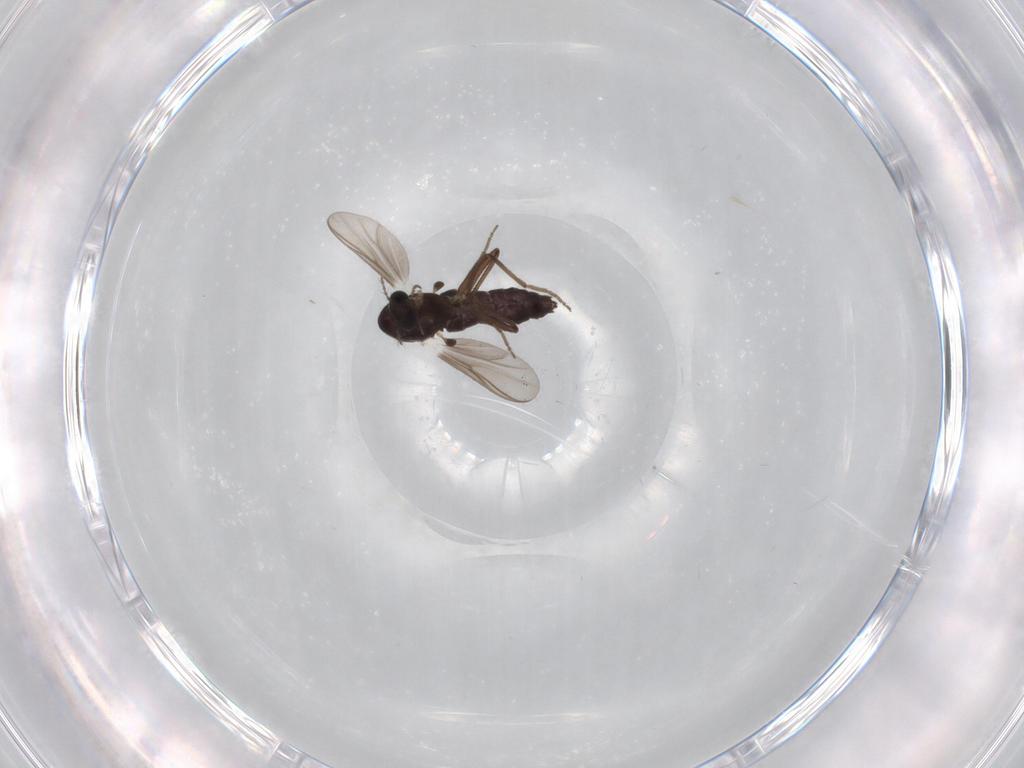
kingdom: Animalia
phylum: Arthropoda
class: Insecta
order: Diptera
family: Chironomidae
